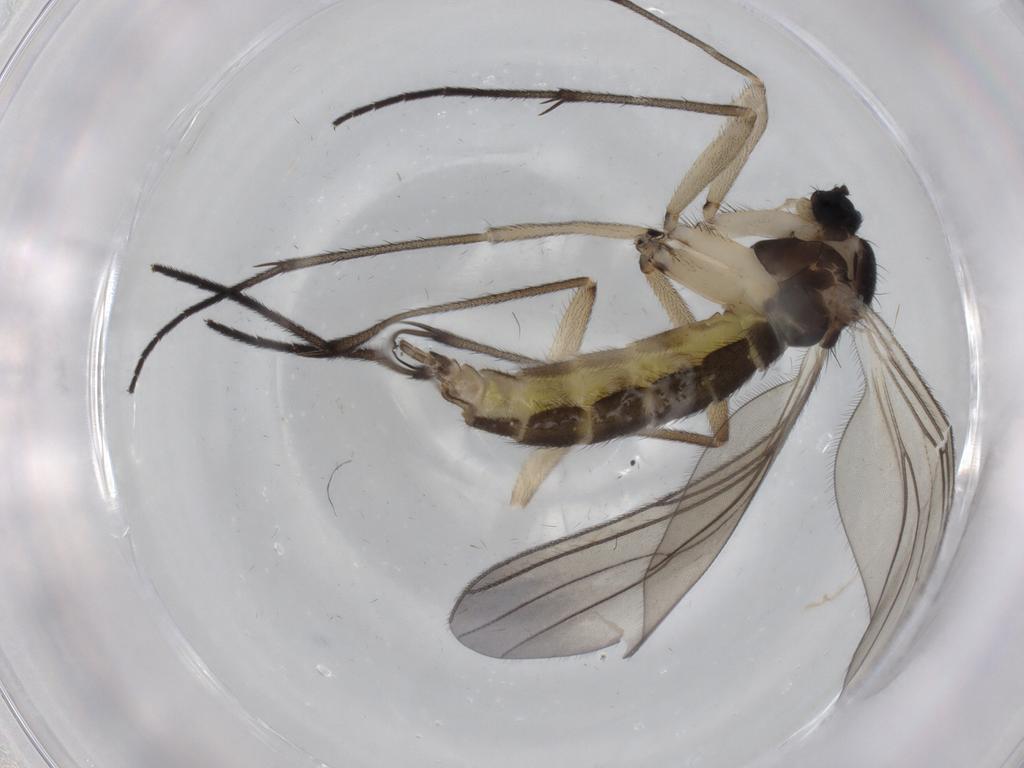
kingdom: Animalia
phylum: Arthropoda
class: Insecta
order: Diptera
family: Sciaridae
